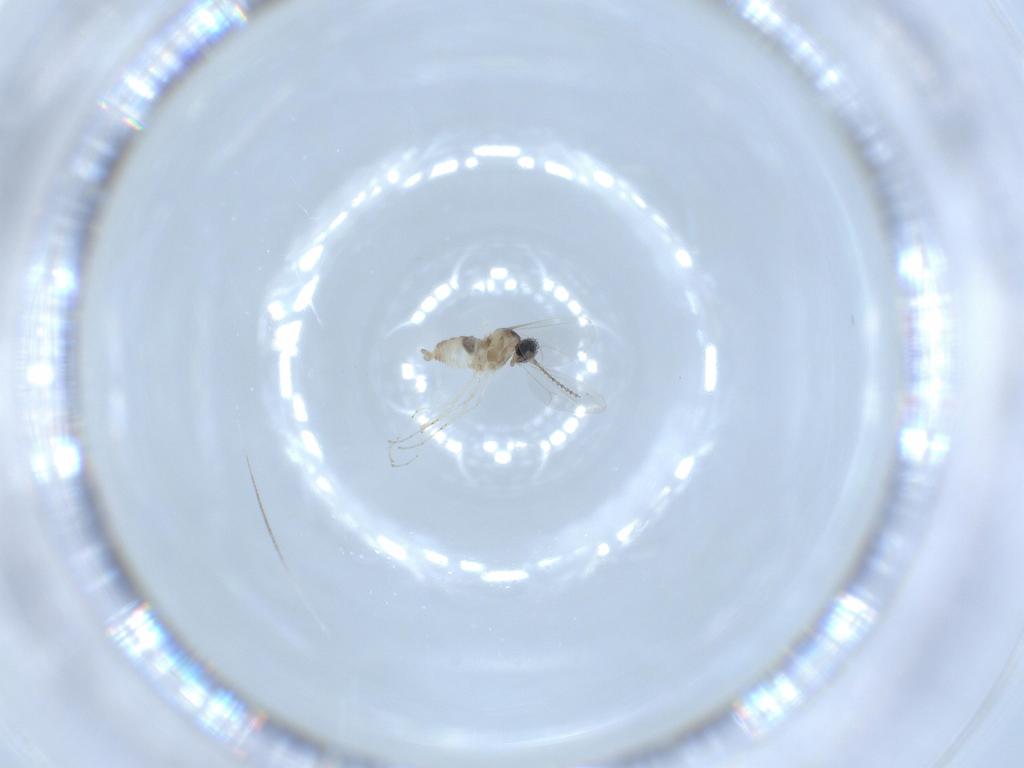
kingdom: Animalia
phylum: Arthropoda
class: Insecta
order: Diptera
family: Cecidomyiidae
